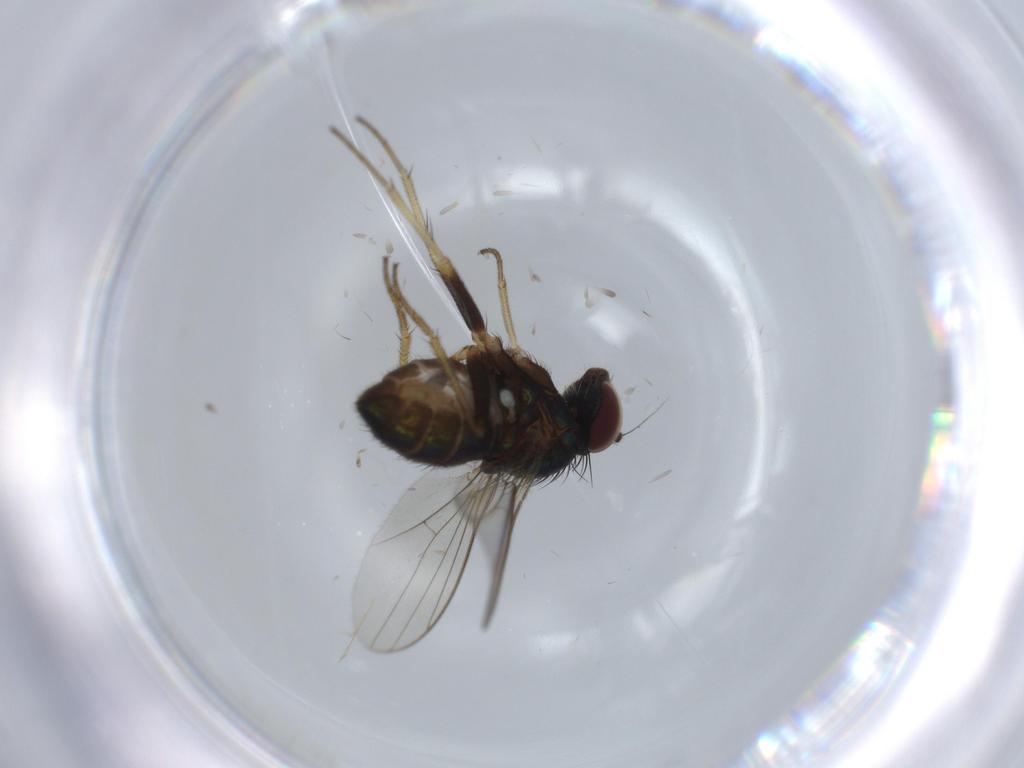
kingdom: Animalia
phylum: Arthropoda
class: Insecta
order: Diptera
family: Dolichopodidae
